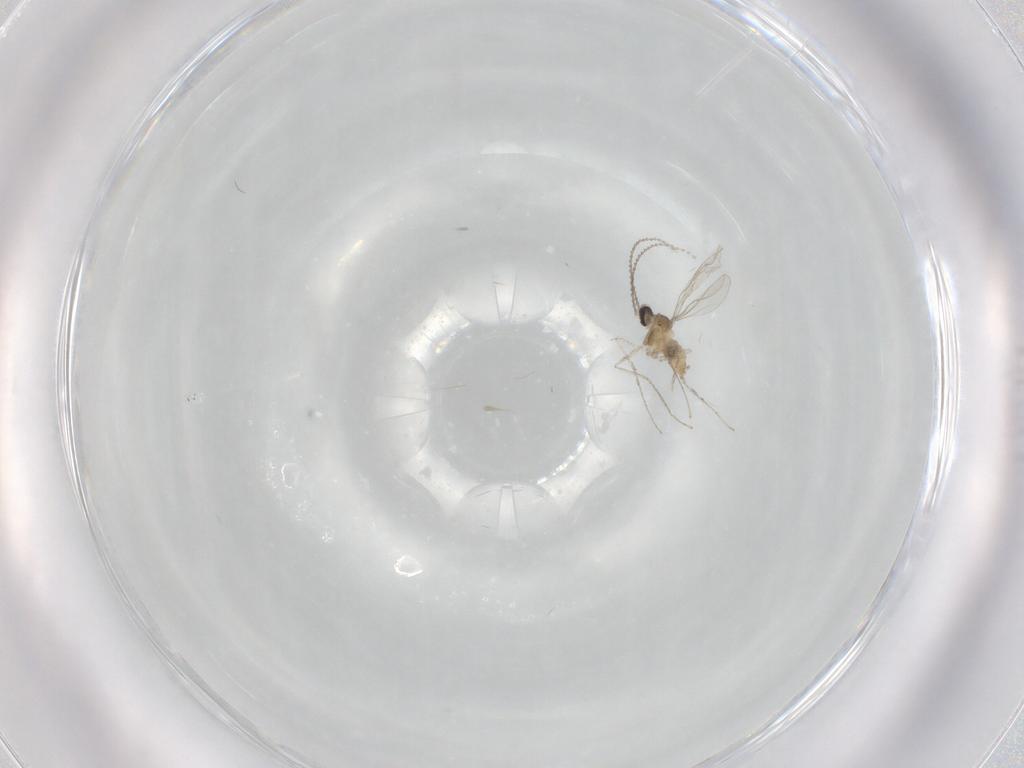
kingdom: Animalia
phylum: Arthropoda
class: Insecta
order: Diptera
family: Cecidomyiidae
